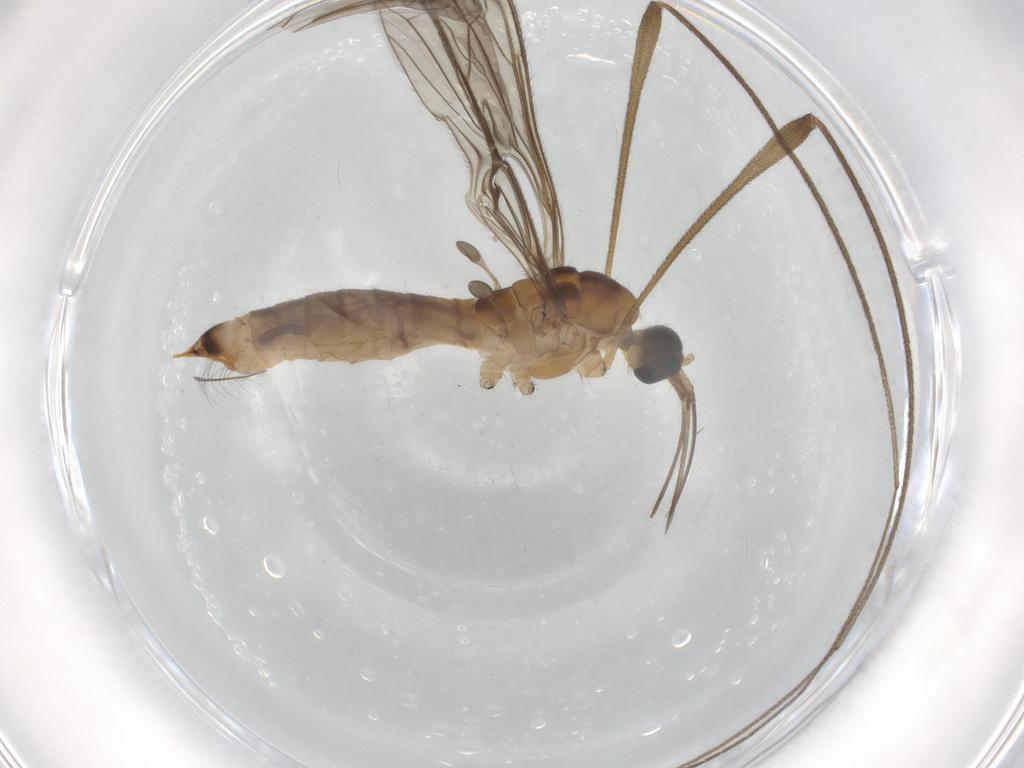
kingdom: Animalia
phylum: Arthropoda
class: Insecta
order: Diptera
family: Limoniidae
